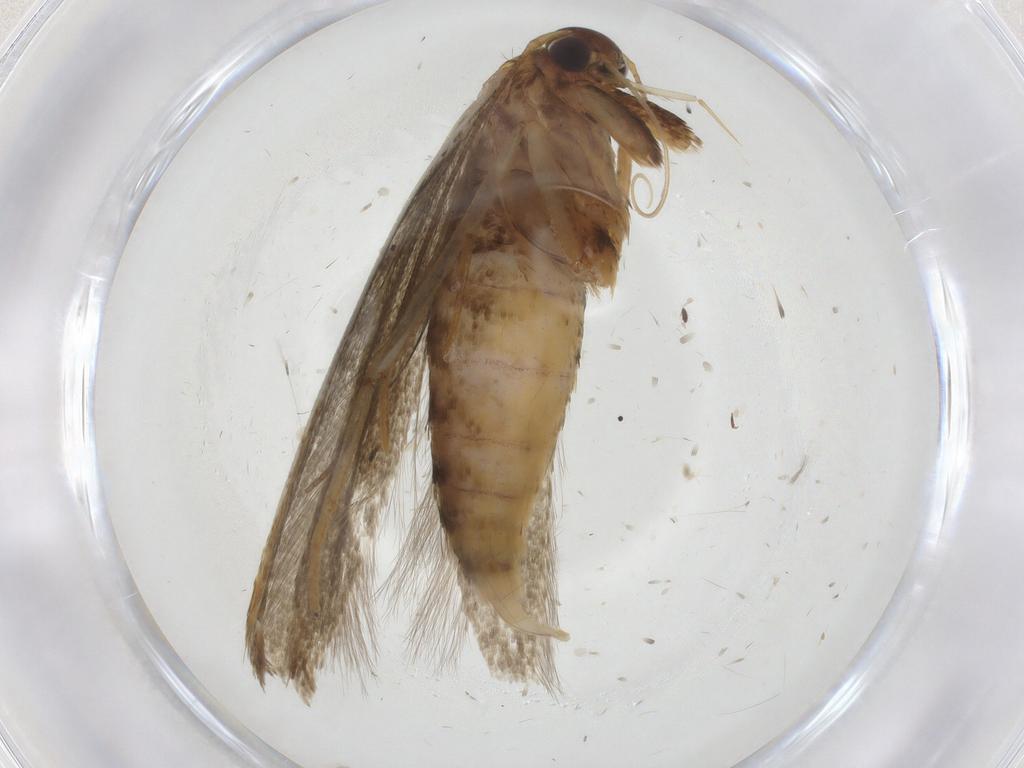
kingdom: Animalia
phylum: Arthropoda
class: Insecta
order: Lepidoptera
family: Blastobasidae
